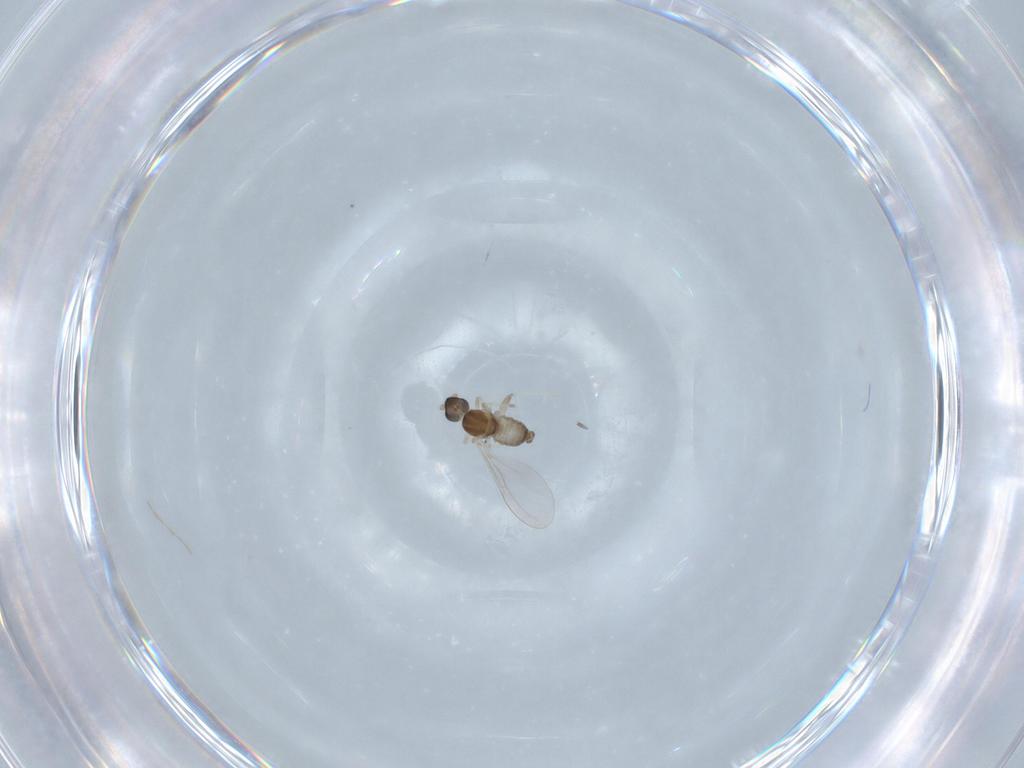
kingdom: Animalia
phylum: Arthropoda
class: Insecta
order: Diptera
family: Cecidomyiidae
